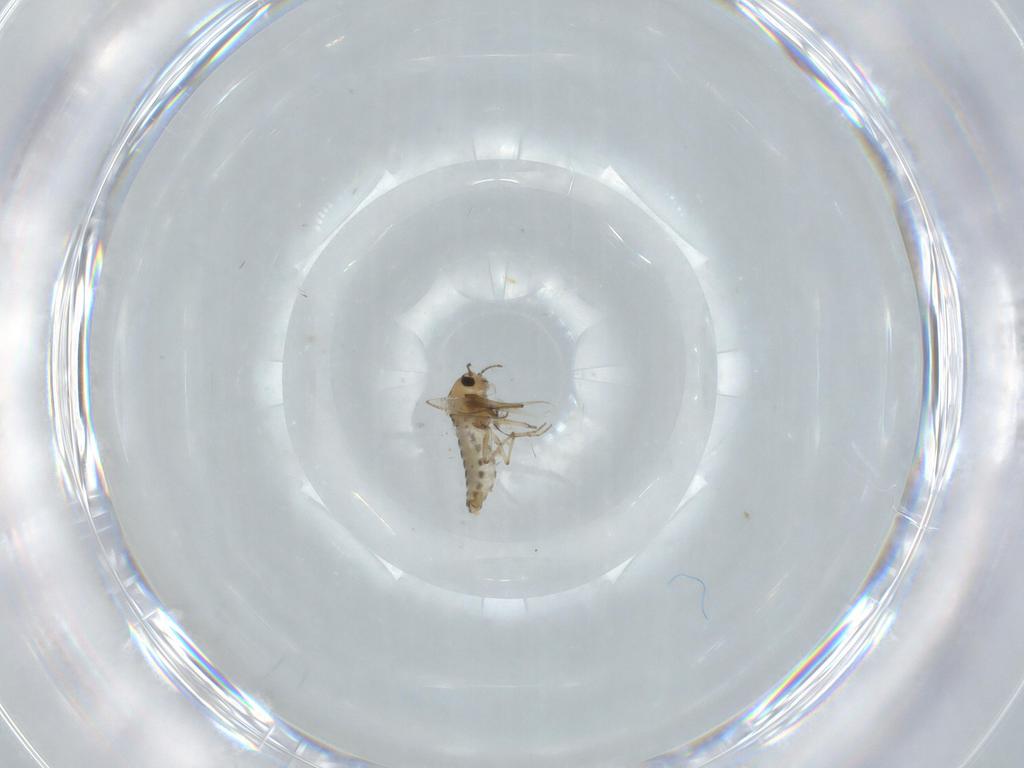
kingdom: Animalia
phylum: Arthropoda
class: Insecta
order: Diptera
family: Chironomidae
